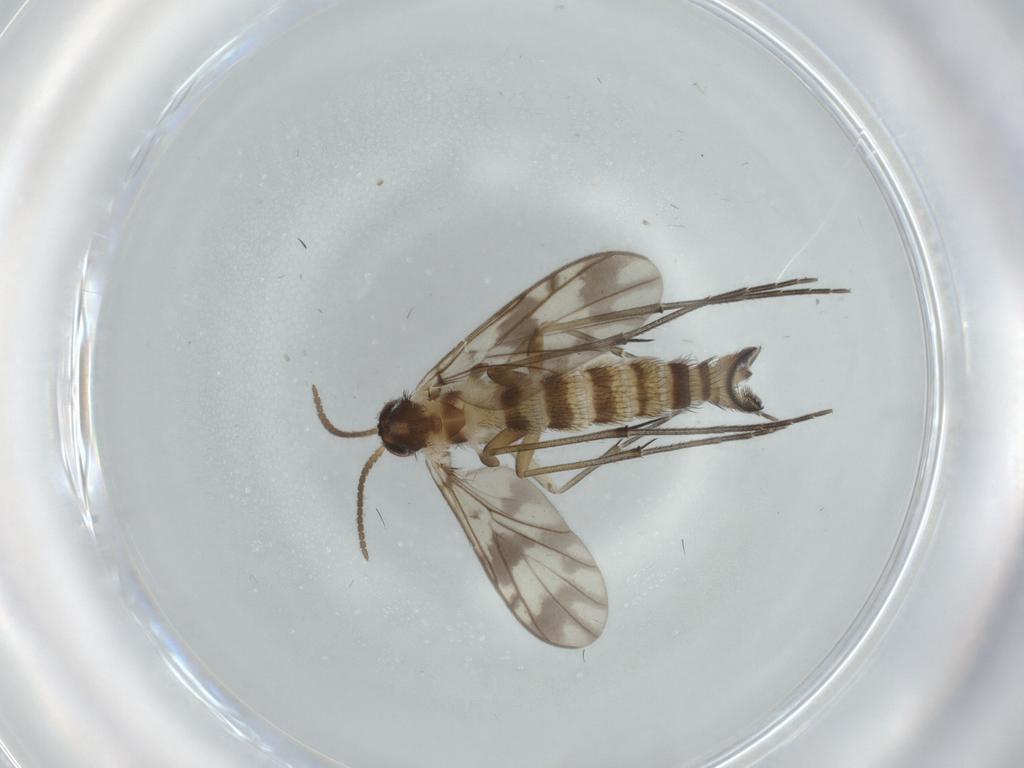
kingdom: Animalia
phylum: Arthropoda
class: Insecta
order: Diptera
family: Keroplatidae
